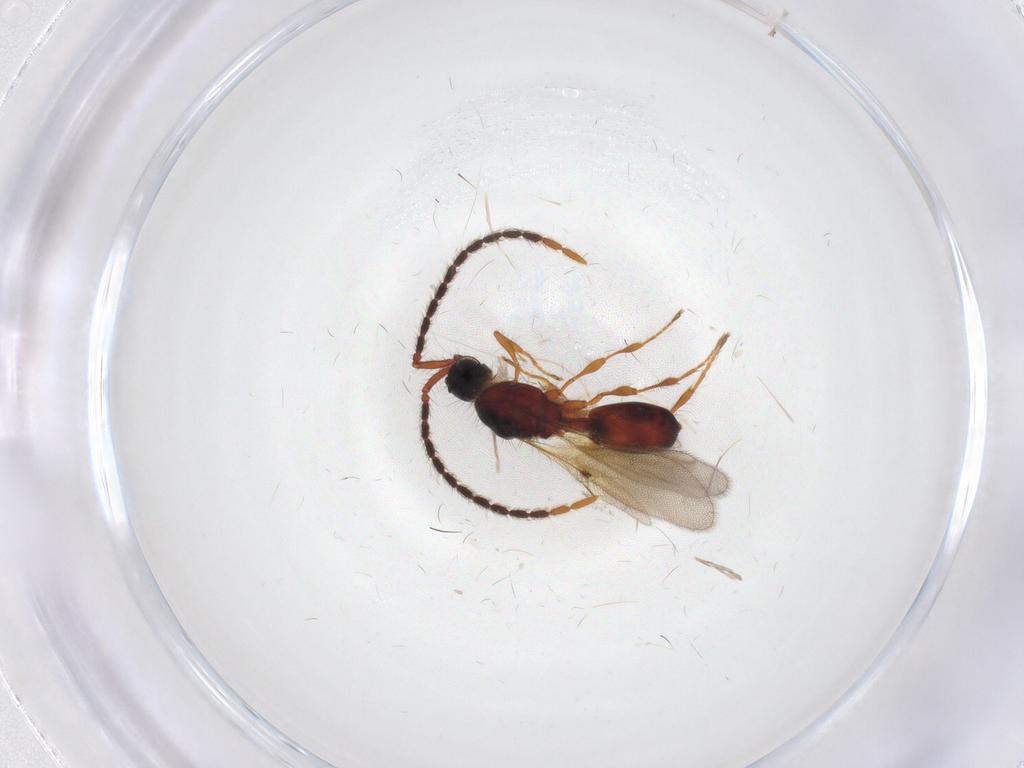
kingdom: Animalia
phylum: Arthropoda
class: Insecta
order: Hymenoptera
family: Diapriidae
